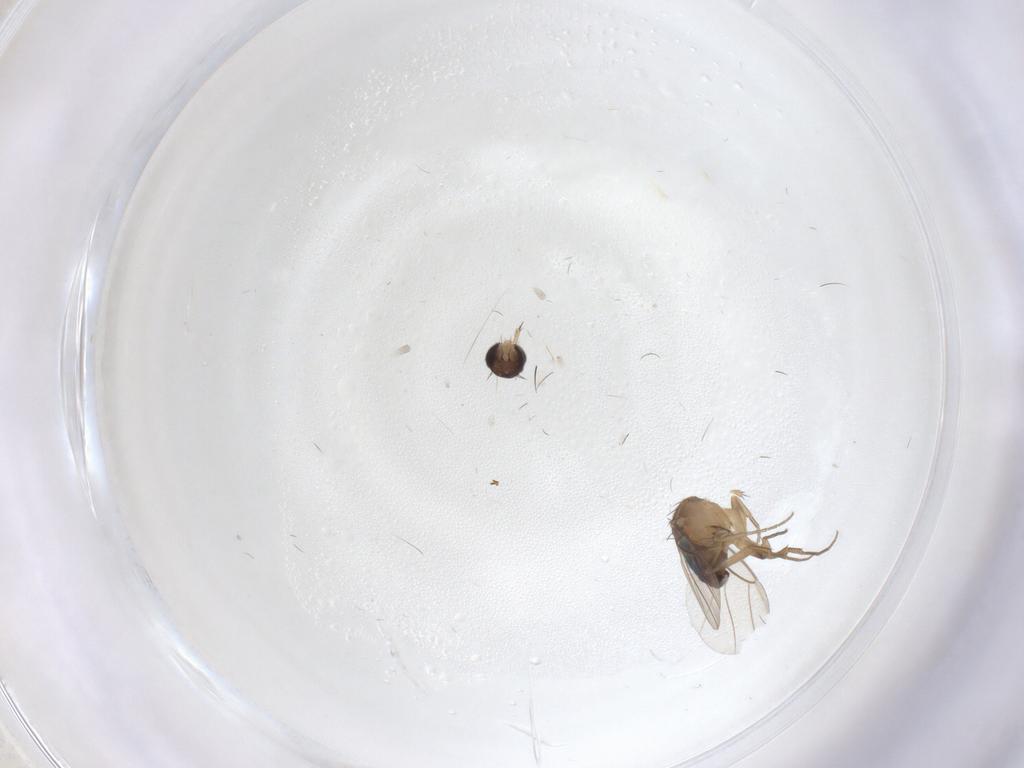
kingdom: Animalia
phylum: Arthropoda
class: Insecta
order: Diptera
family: Phoridae
